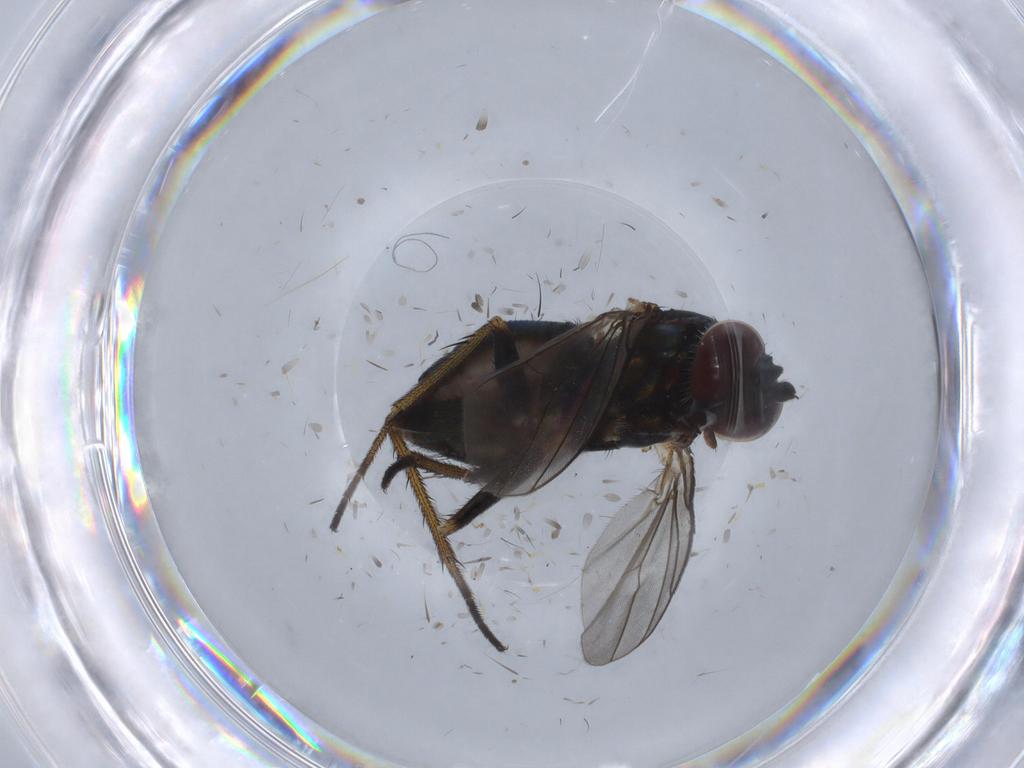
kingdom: Animalia
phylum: Arthropoda
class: Insecta
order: Diptera
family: Dolichopodidae
